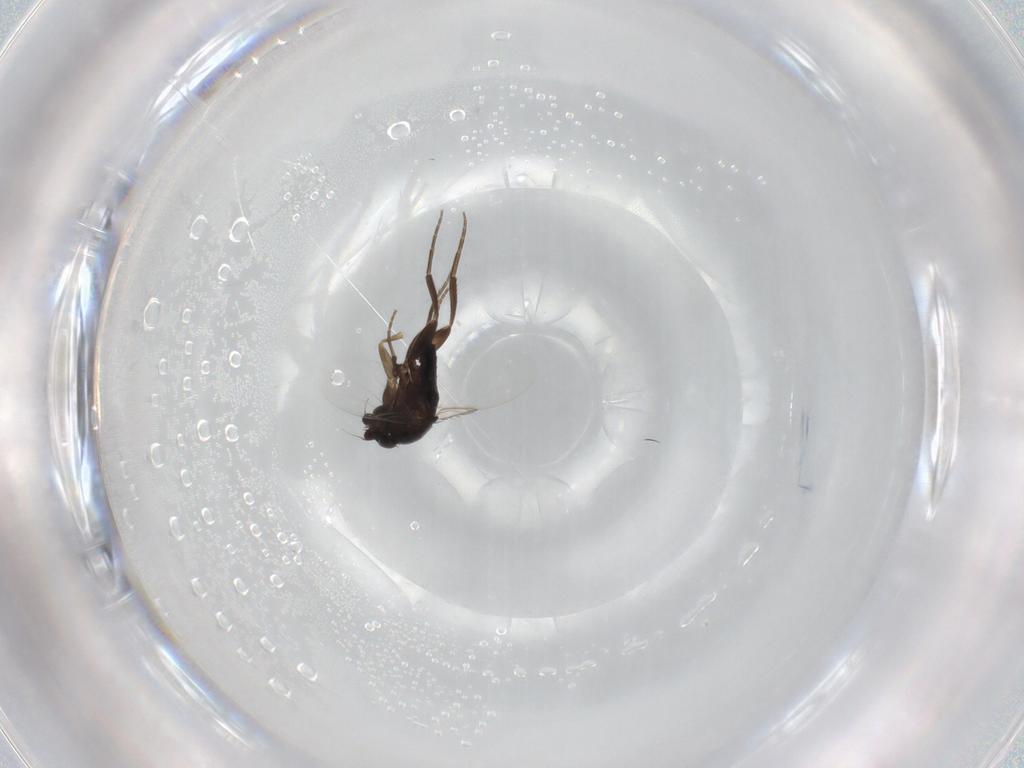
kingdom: Animalia
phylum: Arthropoda
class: Insecta
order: Diptera
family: Phoridae
